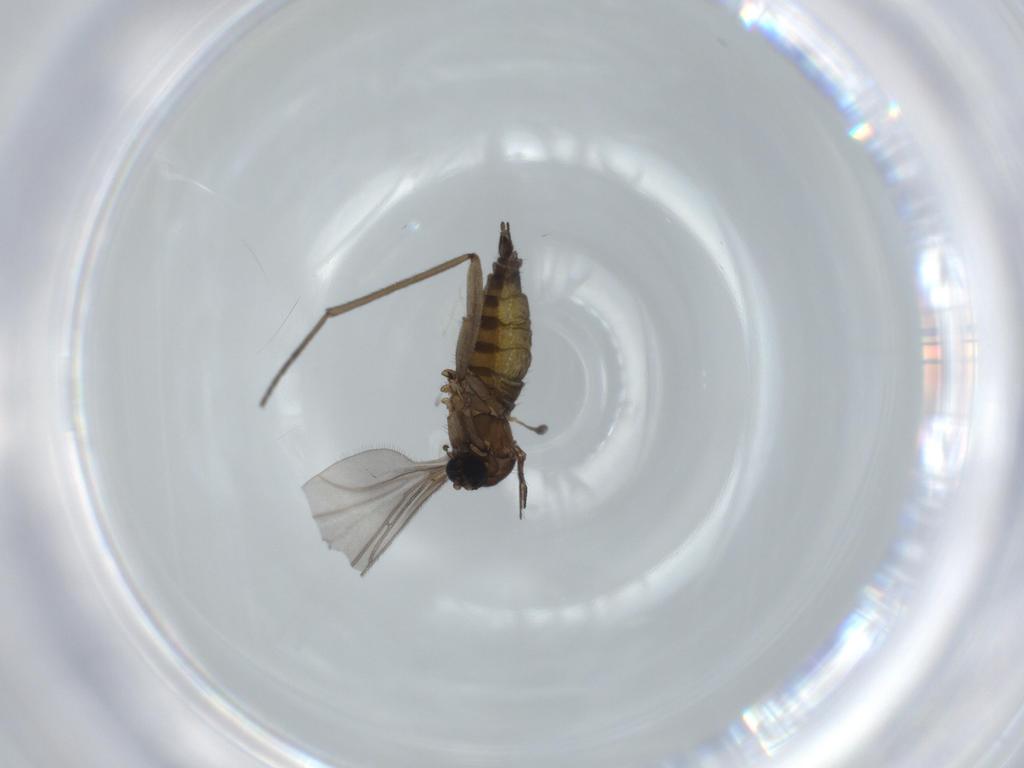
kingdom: Animalia
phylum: Arthropoda
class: Insecta
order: Diptera
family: Sciaridae
